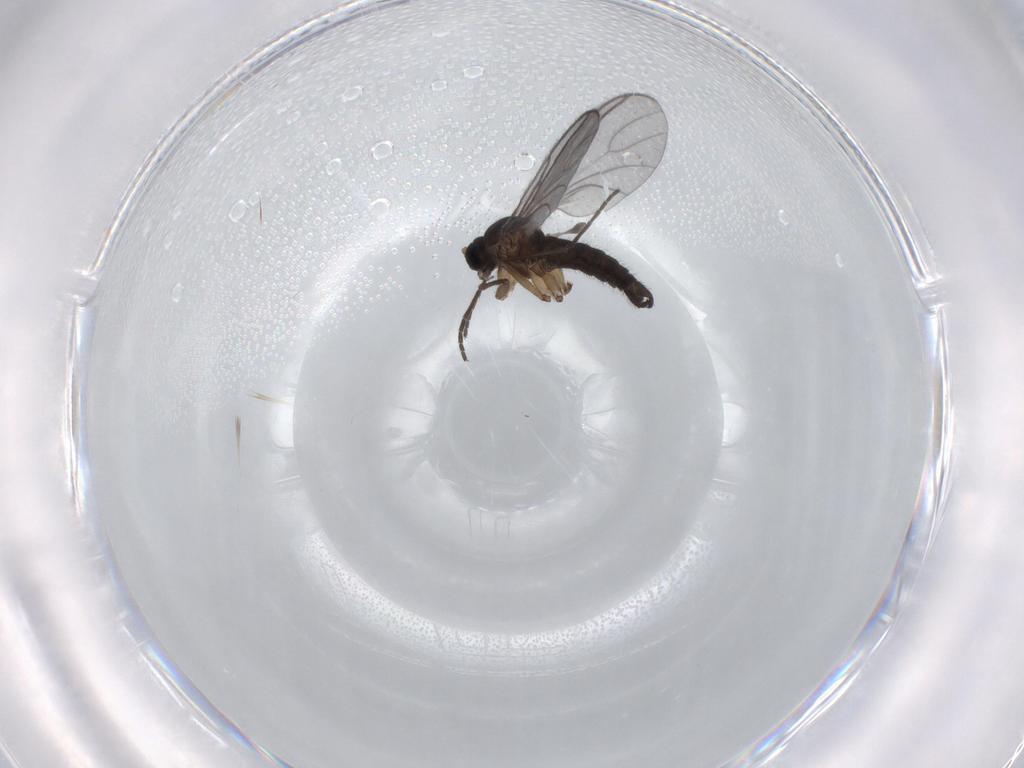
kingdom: Animalia
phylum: Arthropoda
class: Insecta
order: Diptera
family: Sciaridae
